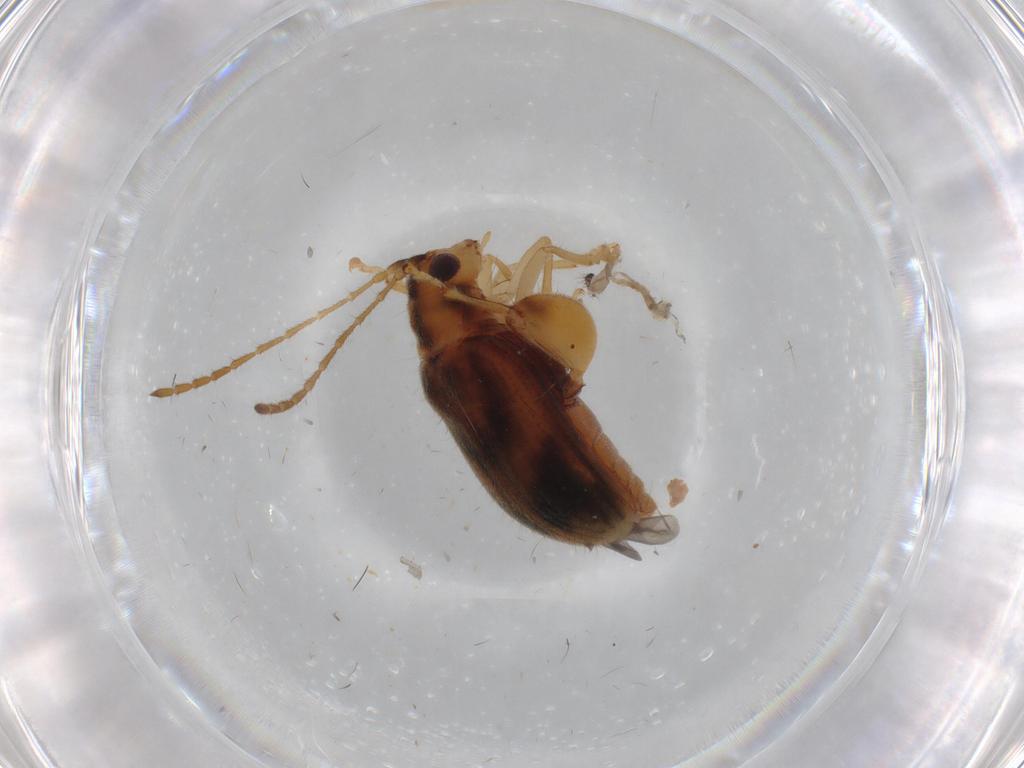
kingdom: Animalia
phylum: Arthropoda
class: Insecta
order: Coleoptera
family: Chrysomelidae
